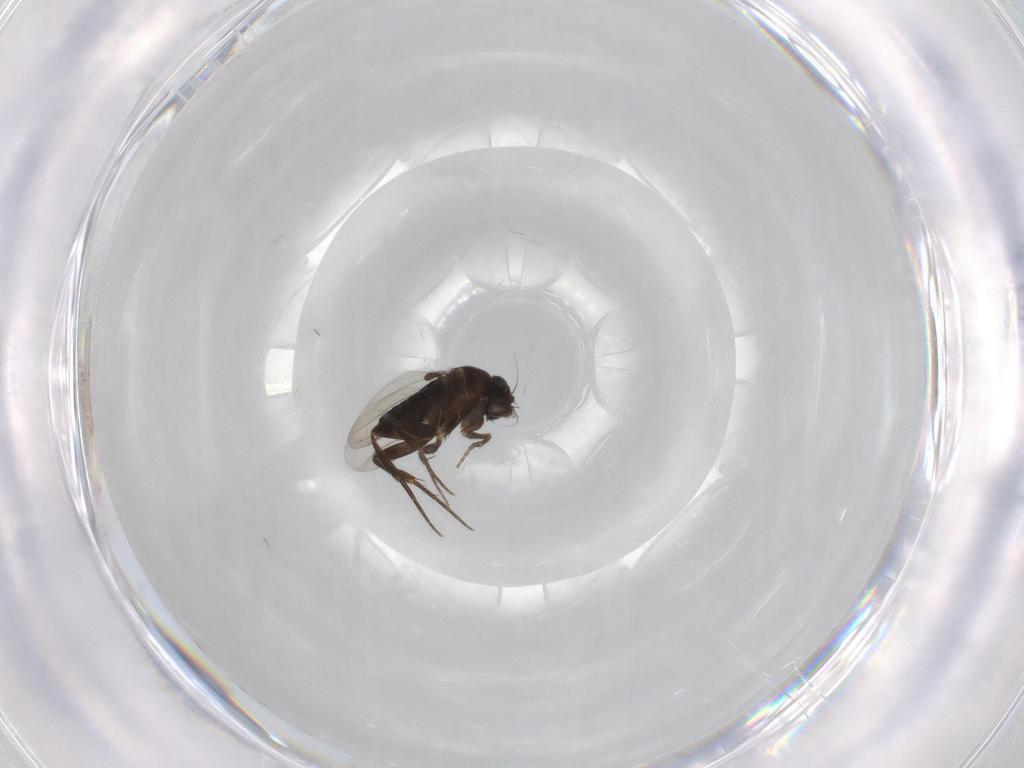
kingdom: Animalia
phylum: Arthropoda
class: Insecta
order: Diptera
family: Phoridae
